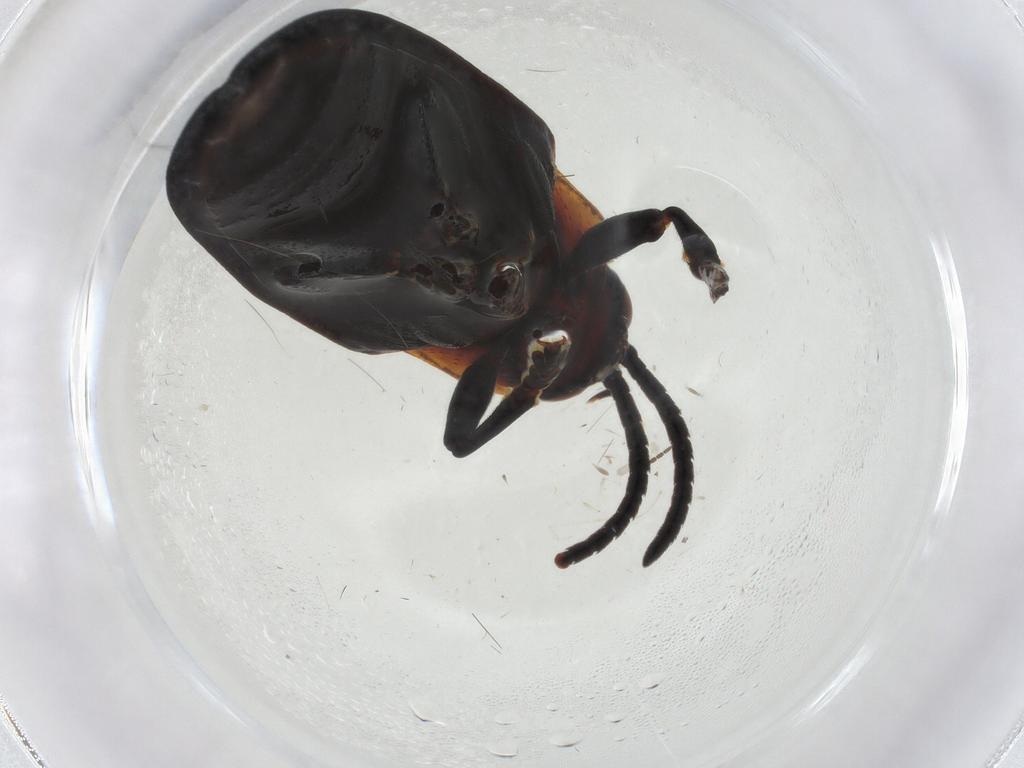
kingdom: Animalia
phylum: Arthropoda
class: Insecta
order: Coleoptera
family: Chrysomelidae
